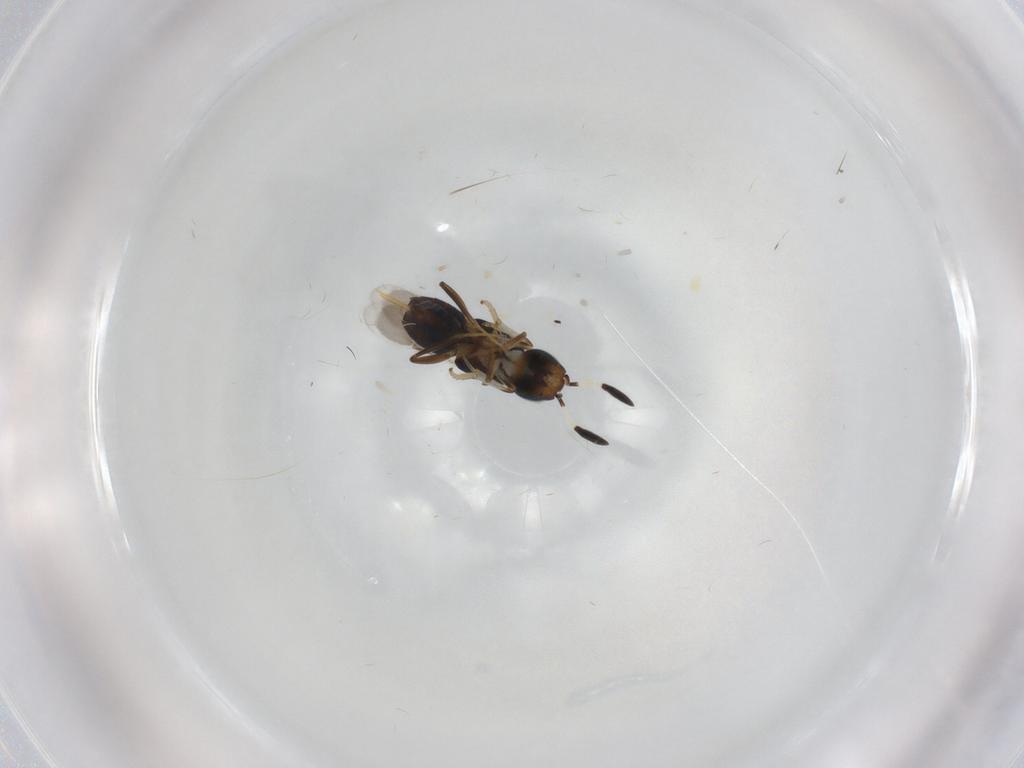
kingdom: Animalia
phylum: Arthropoda
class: Insecta
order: Hymenoptera
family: Encyrtidae
